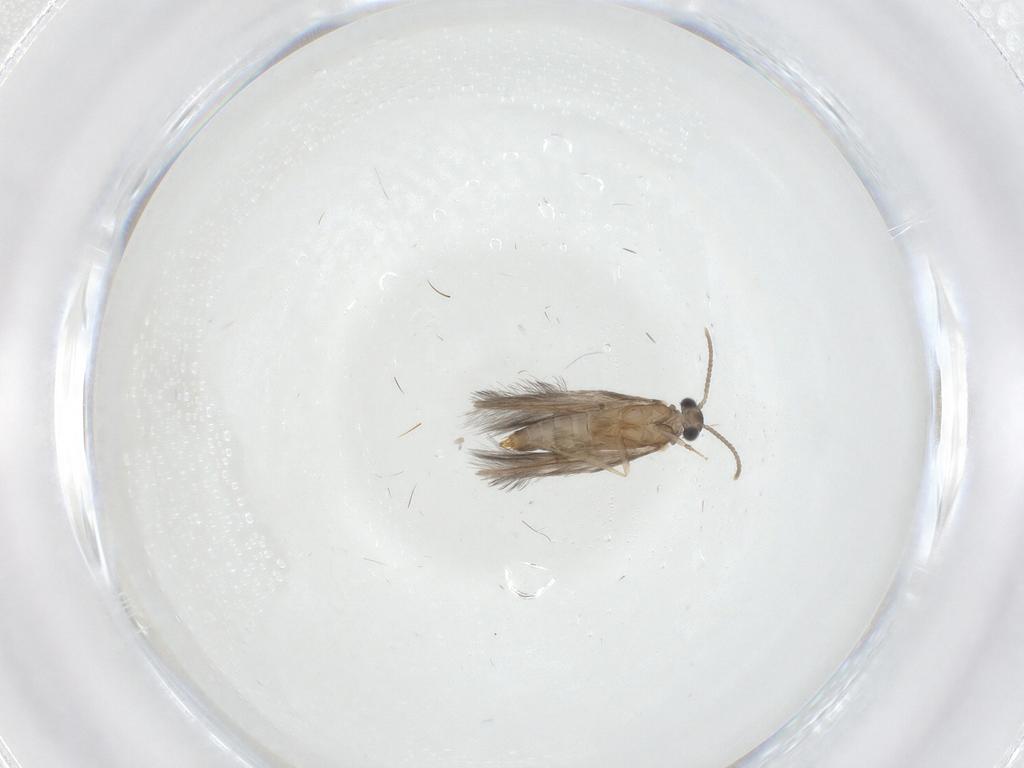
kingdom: Animalia
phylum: Arthropoda
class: Insecta
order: Trichoptera
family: Hydroptilidae
